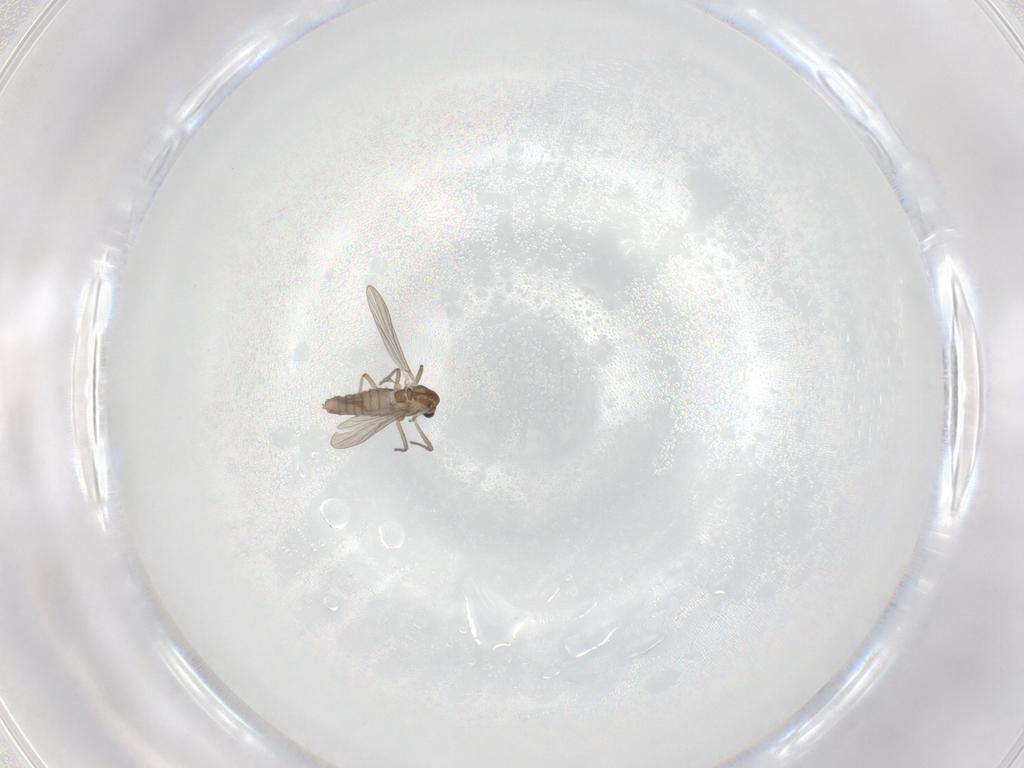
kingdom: Animalia
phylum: Arthropoda
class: Insecta
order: Diptera
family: Chironomidae
